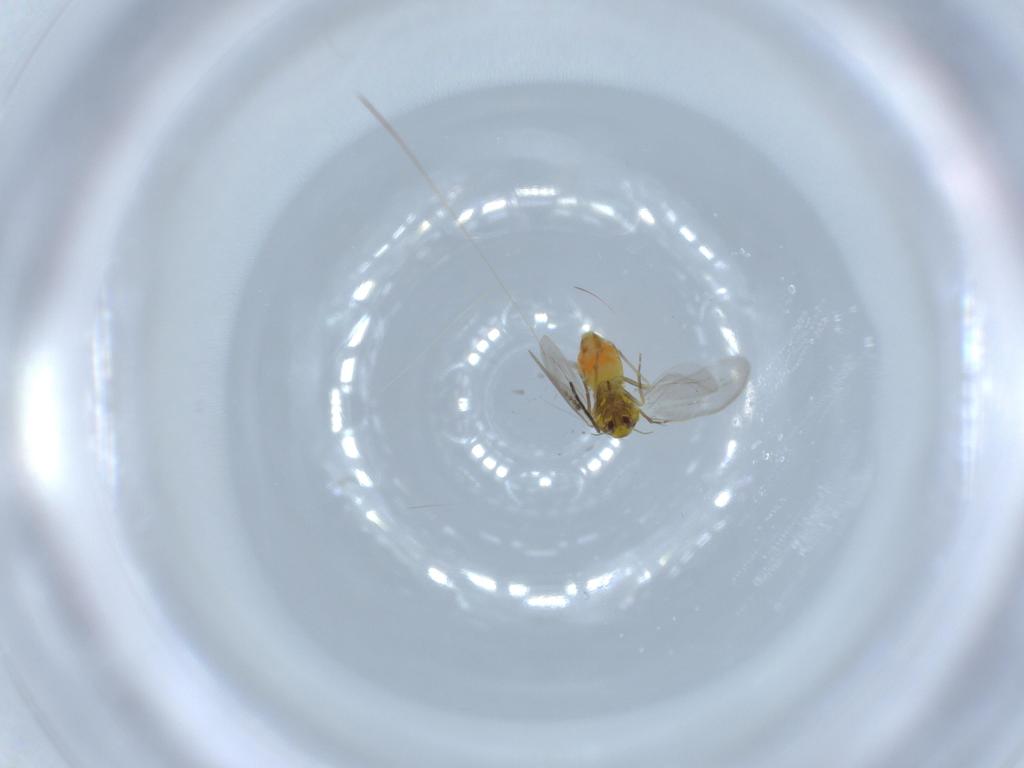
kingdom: Animalia
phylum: Arthropoda
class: Insecta
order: Hemiptera
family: Aleyrodidae
